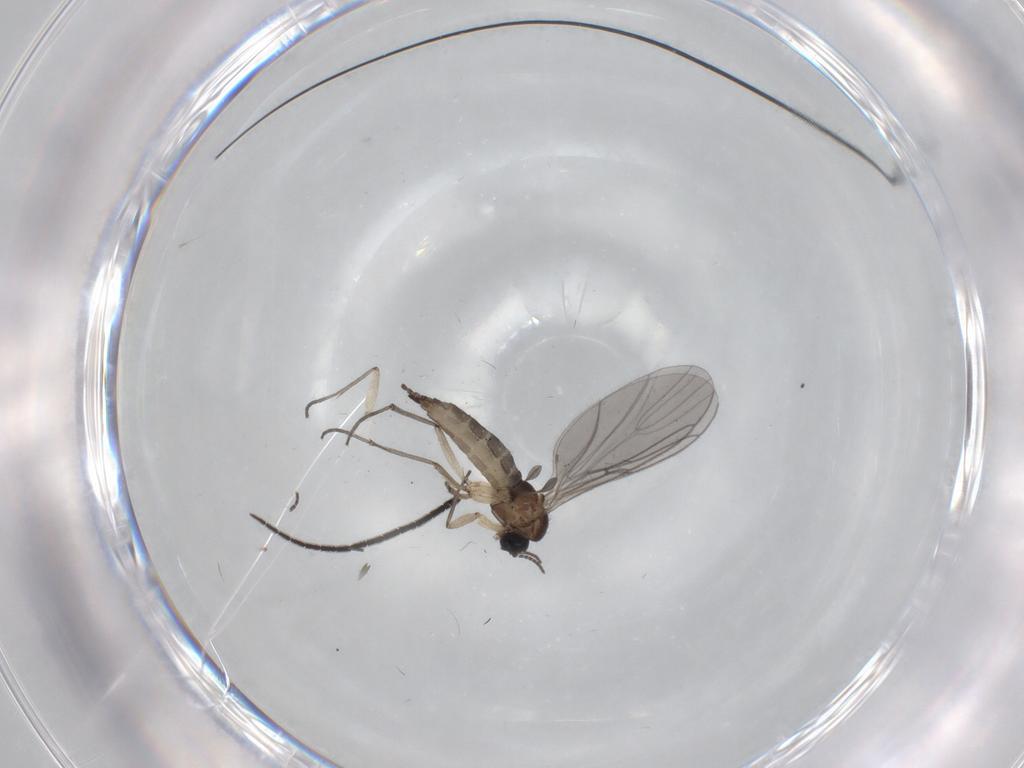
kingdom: Animalia
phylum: Arthropoda
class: Insecta
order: Diptera
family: Sciaridae
